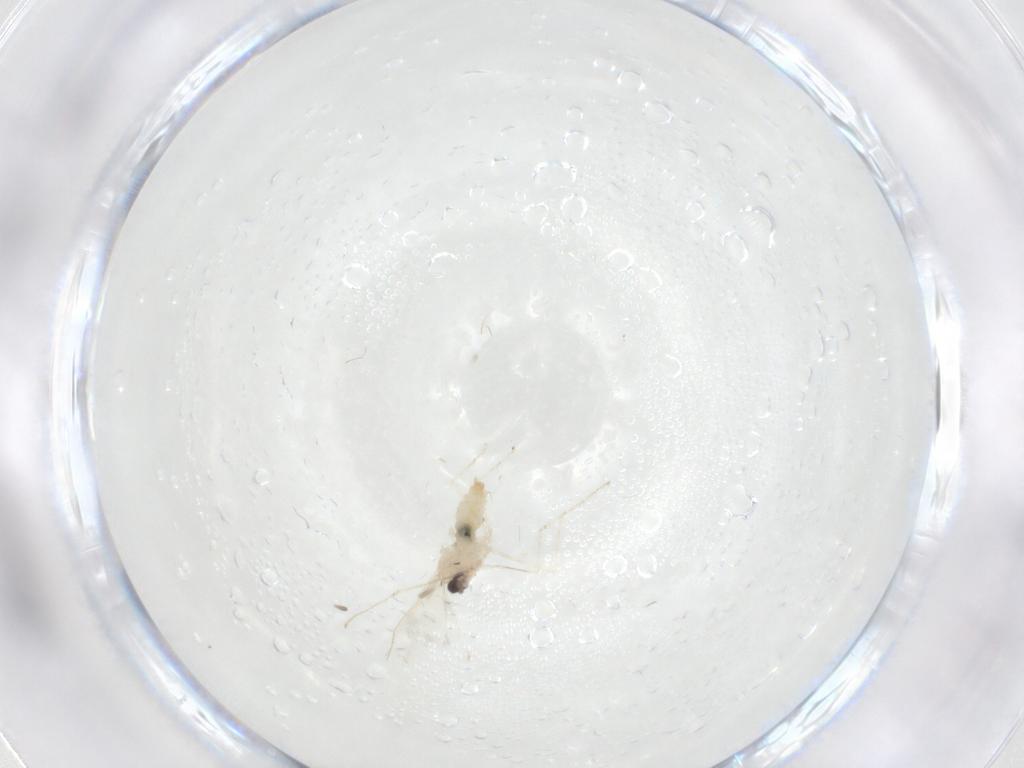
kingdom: Animalia
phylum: Arthropoda
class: Insecta
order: Diptera
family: Cecidomyiidae
